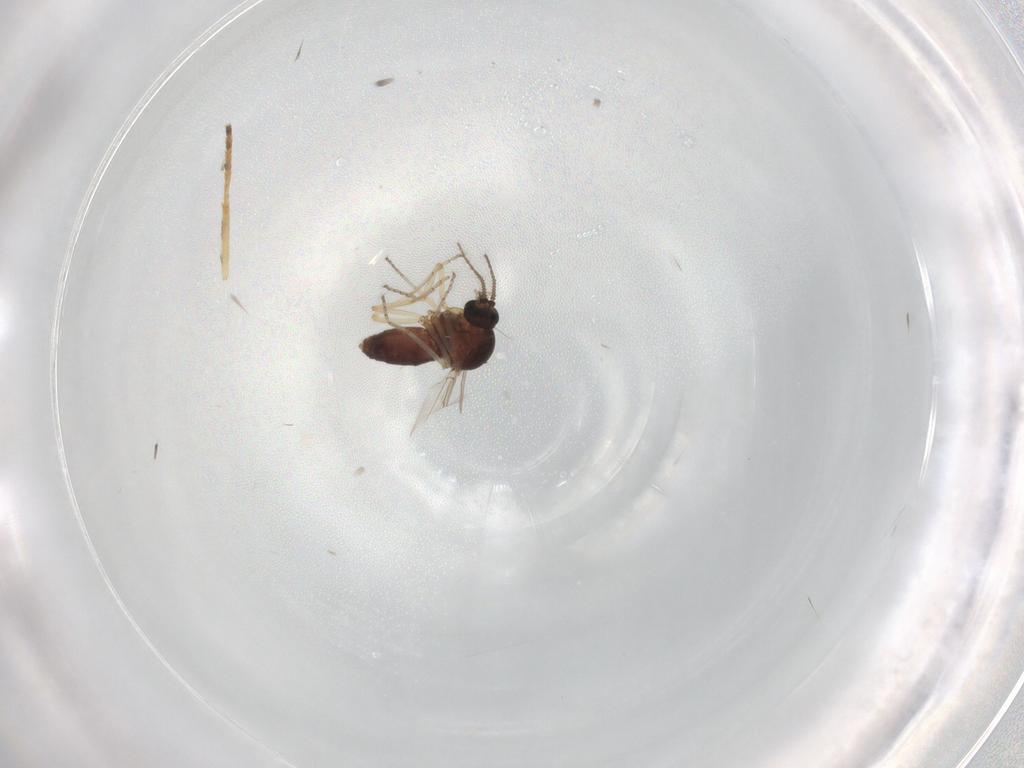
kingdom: Animalia
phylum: Arthropoda
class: Insecta
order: Diptera
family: Ceratopogonidae
